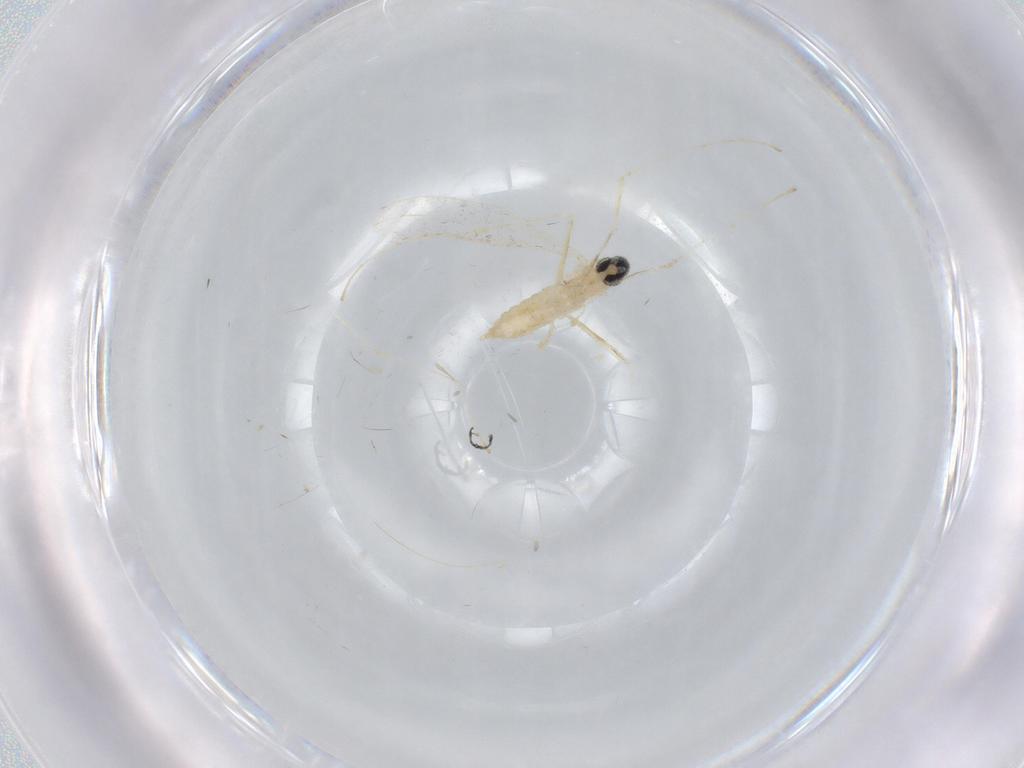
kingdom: Animalia
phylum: Arthropoda
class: Insecta
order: Diptera
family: Cecidomyiidae
